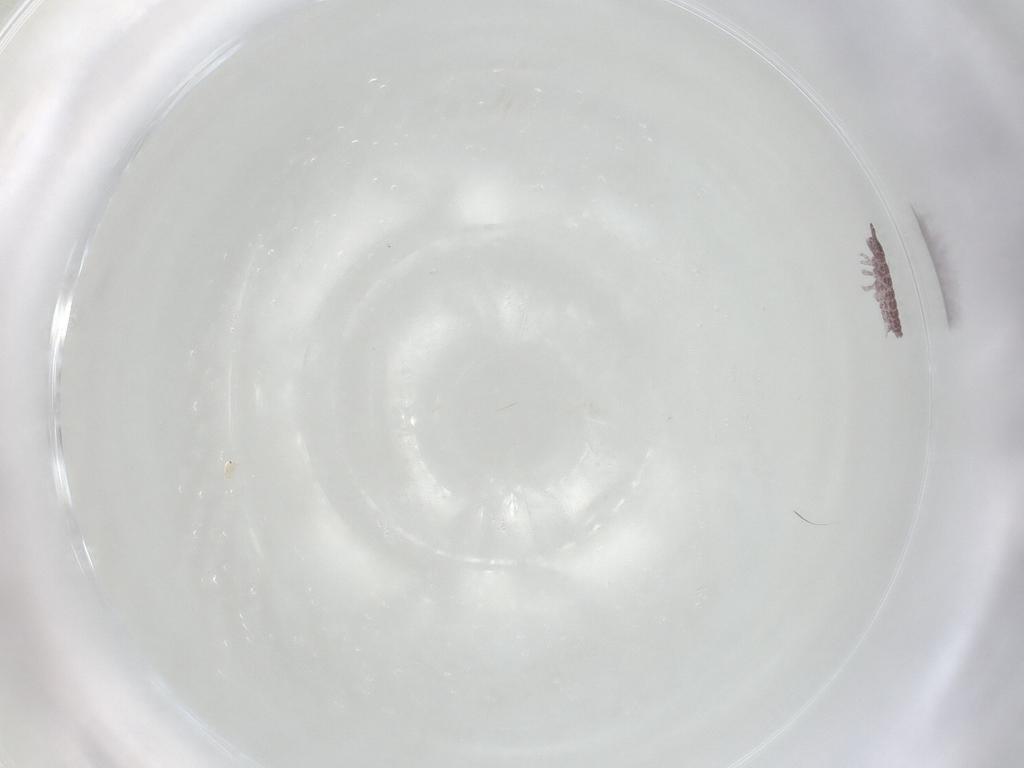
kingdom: Animalia
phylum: Arthropoda
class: Collembola
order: Poduromorpha
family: Hypogastruridae
